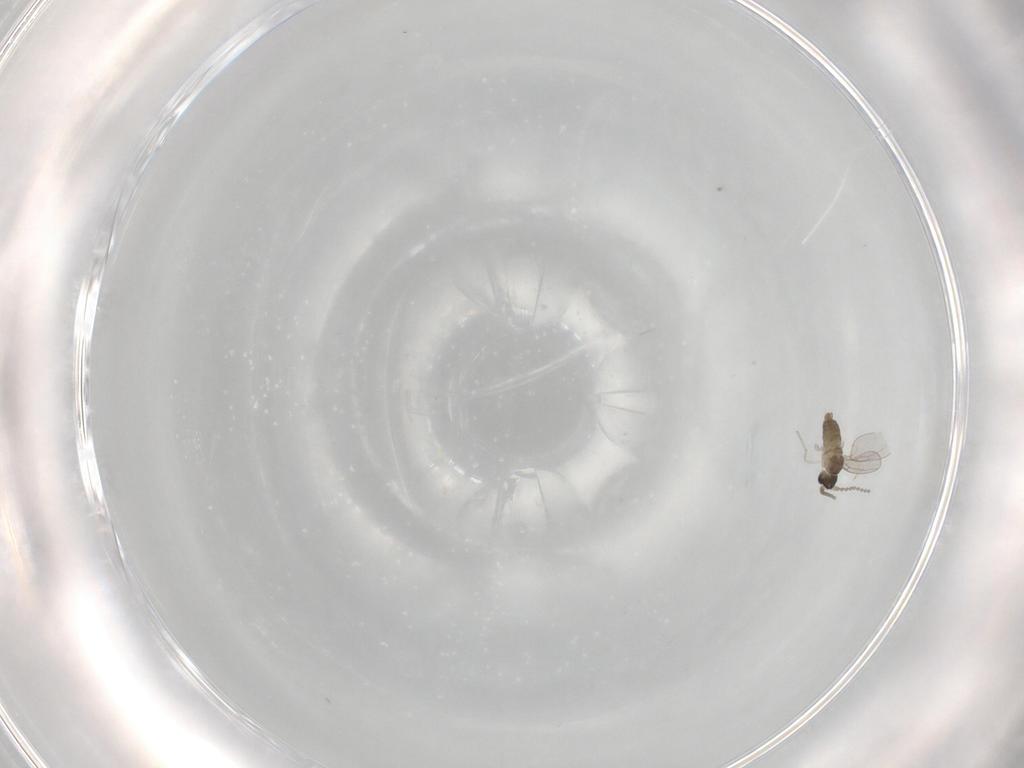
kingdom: Animalia
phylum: Arthropoda
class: Insecta
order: Diptera
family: Cecidomyiidae
